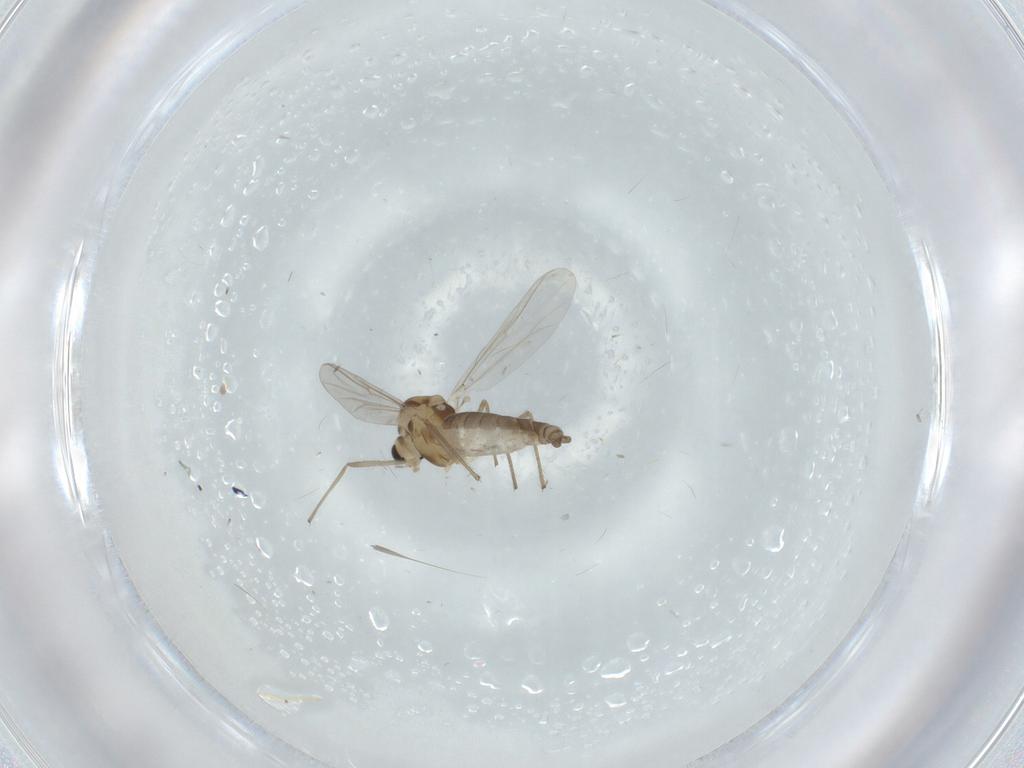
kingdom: Animalia
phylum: Arthropoda
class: Insecta
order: Diptera
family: Chironomidae
